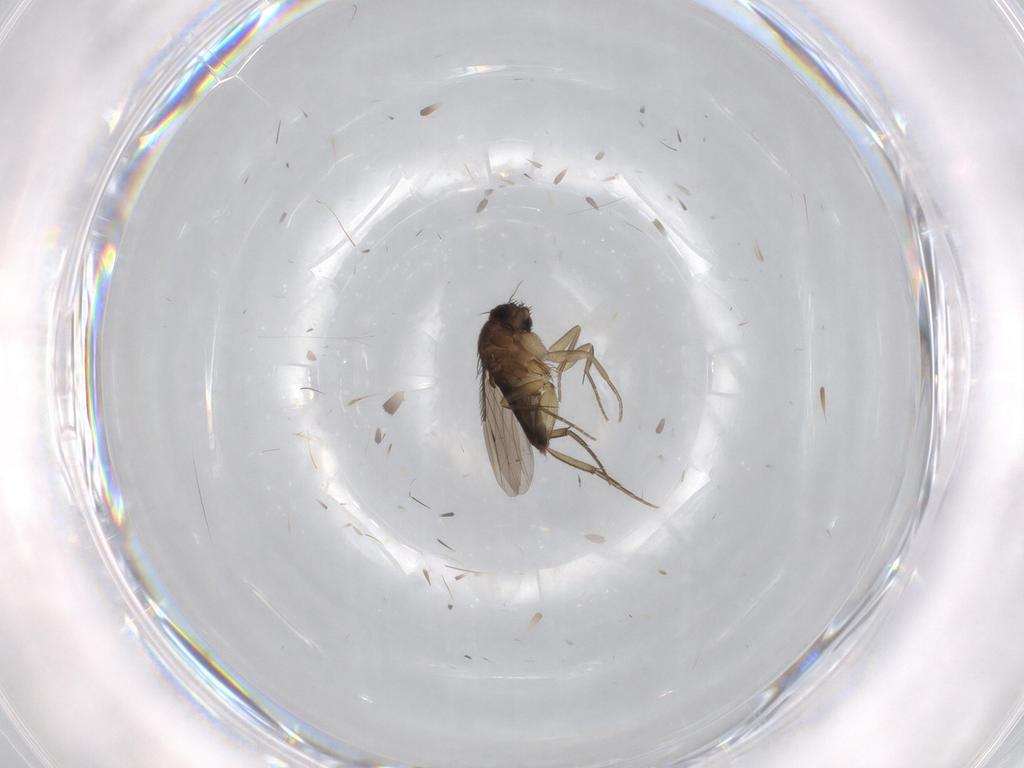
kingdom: Animalia
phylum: Arthropoda
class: Insecta
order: Diptera
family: Phoridae
